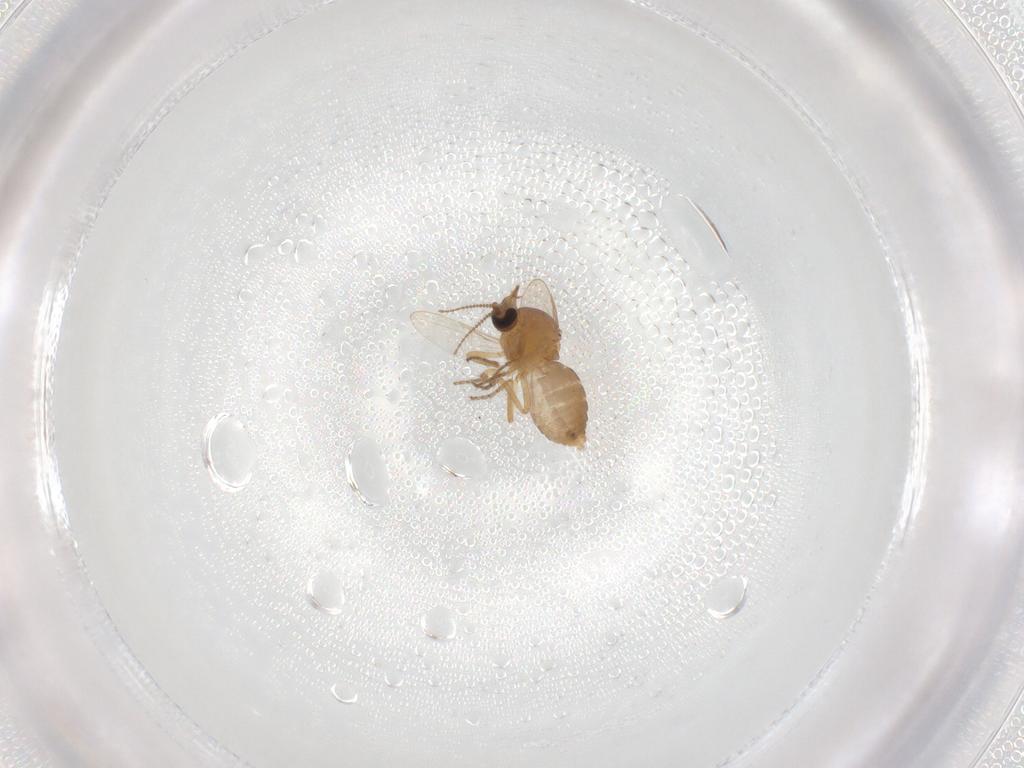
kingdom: Animalia
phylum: Arthropoda
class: Insecta
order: Diptera
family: Ceratopogonidae
